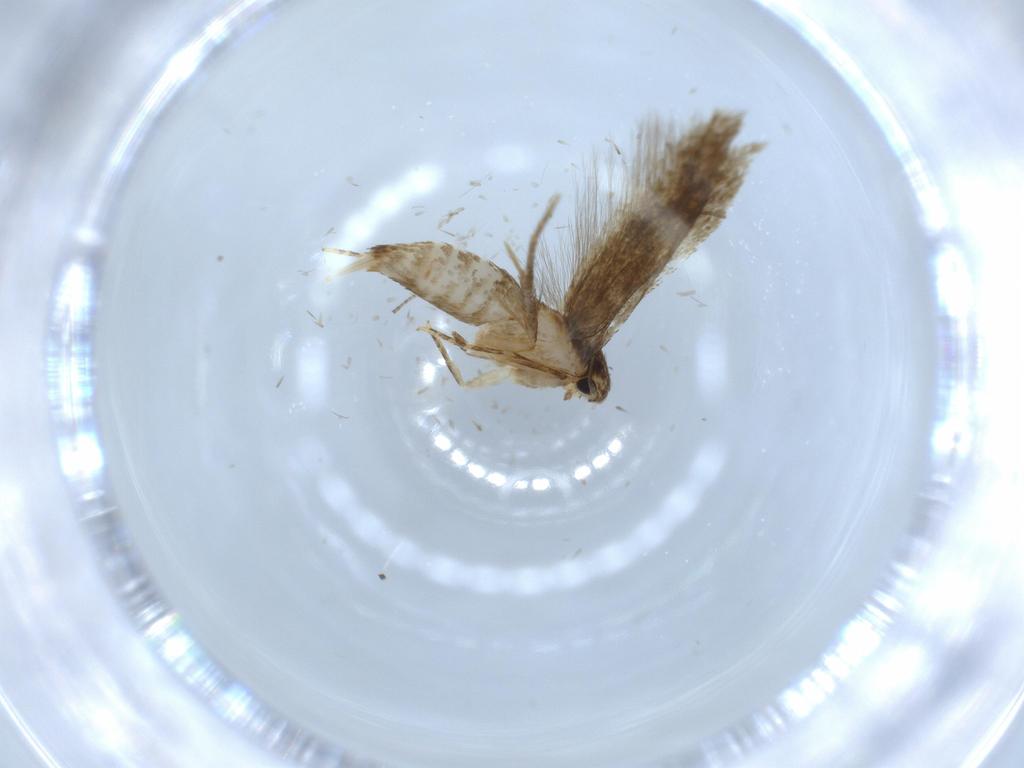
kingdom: Animalia
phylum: Arthropoda
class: Insecta
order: Lepidoptera
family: Tineidae
